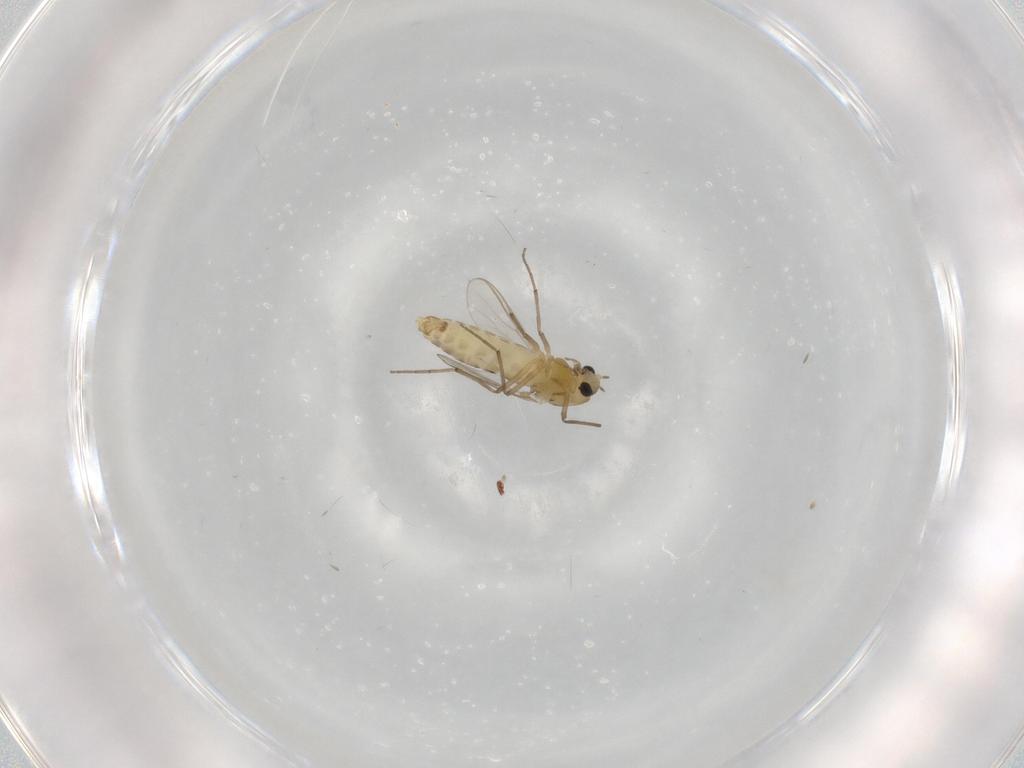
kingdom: Animalia
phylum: Arthropoda
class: Insecta
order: Diptera
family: Chironomidae
